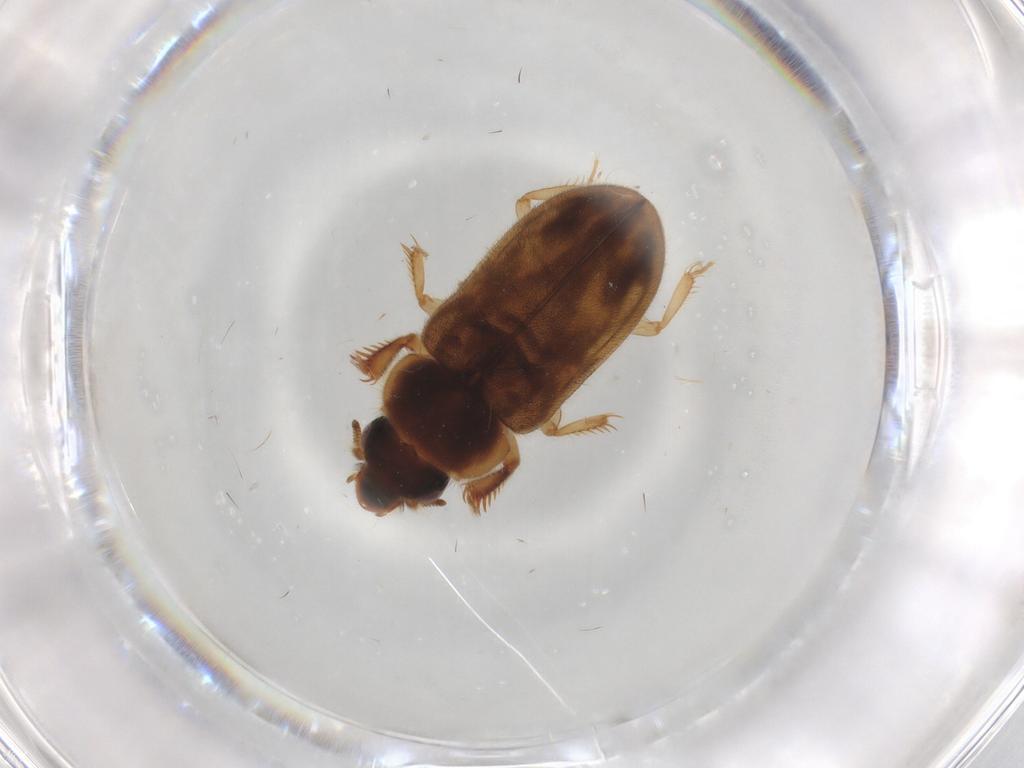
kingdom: Animalia
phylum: Arthropoda
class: Insecta
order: Coleoptera
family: Heteroceridae
